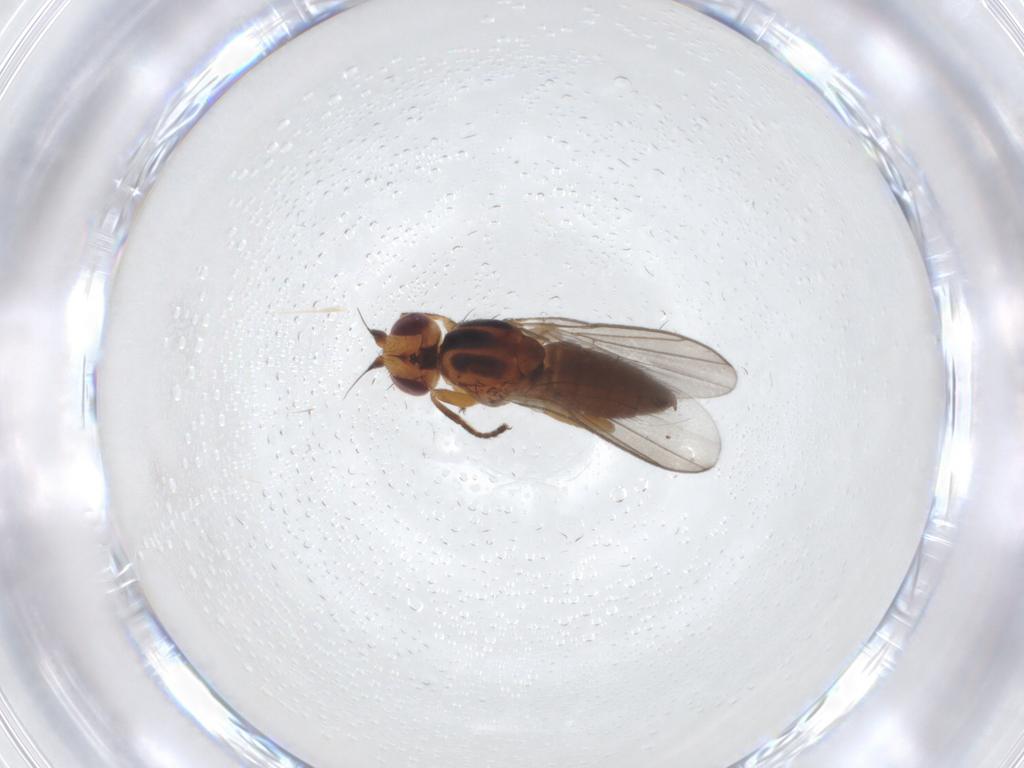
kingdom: Animalia
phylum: Arthropoda
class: Insecta
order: Diptera
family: Chloropidae
